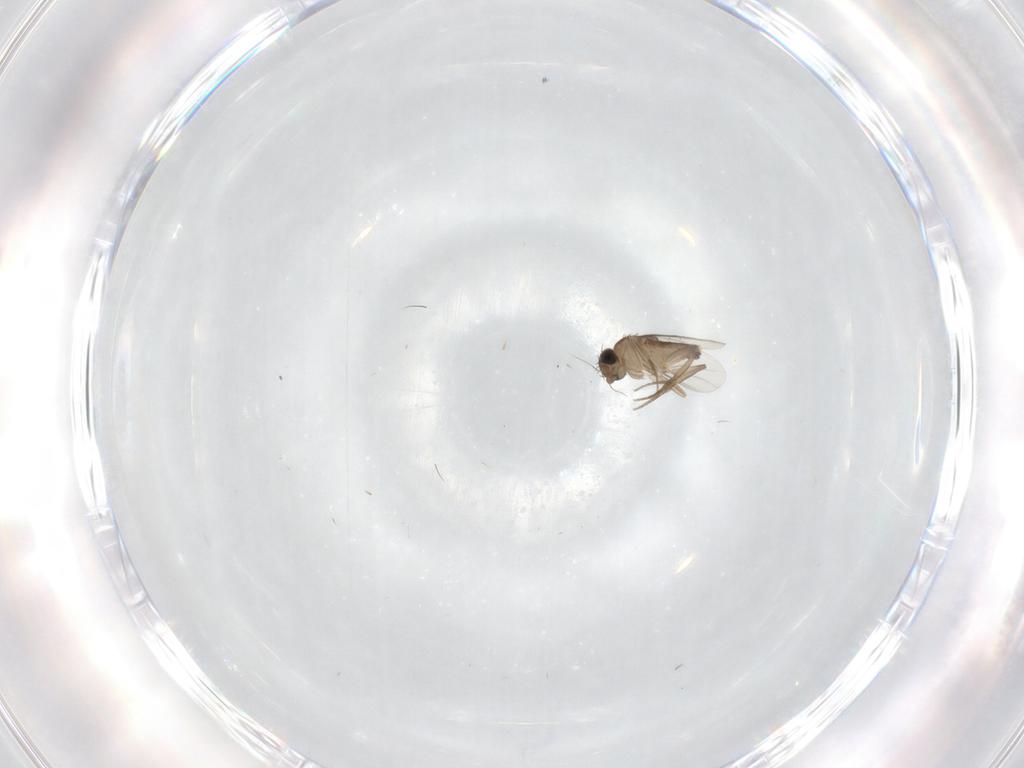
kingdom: Animalia
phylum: Arthropoda
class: Insecta
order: Diptera
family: Phoridae
